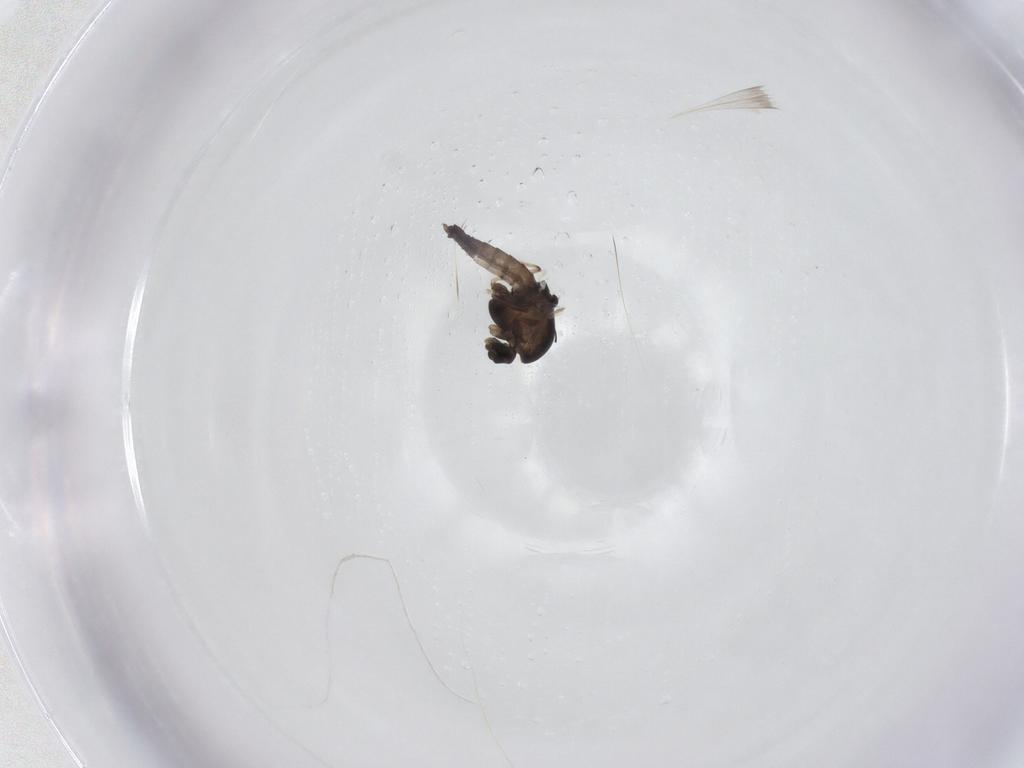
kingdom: Animalia
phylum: Arthropoda
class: Insecta
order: Diptera
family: Chironomidae
